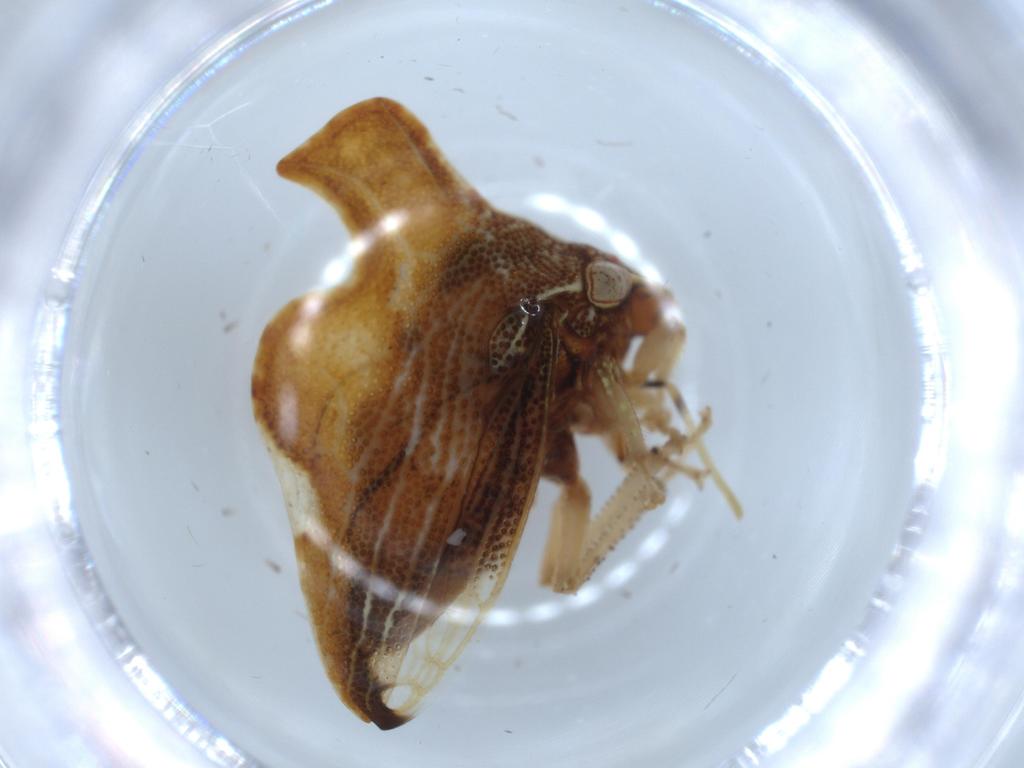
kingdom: Animalia
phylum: Arthropoda
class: Insecta
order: Hemiptera
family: Membracidae
